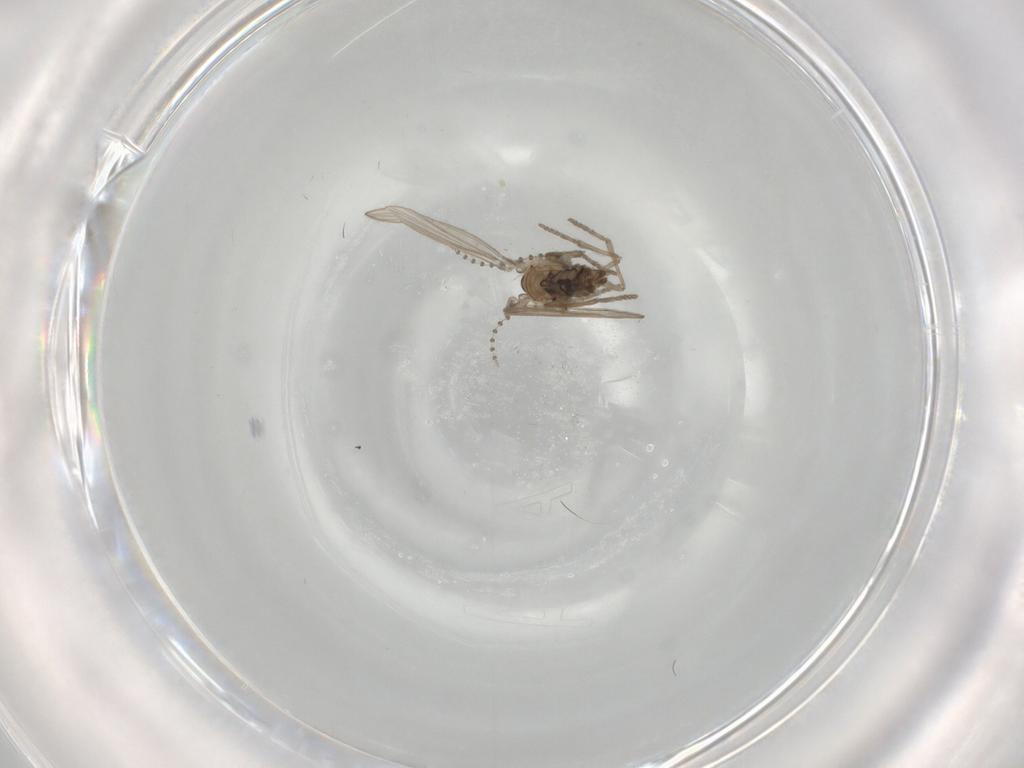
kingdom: Animalia
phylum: Arthropoda
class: Insecta
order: Diptera
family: Psychodidae
